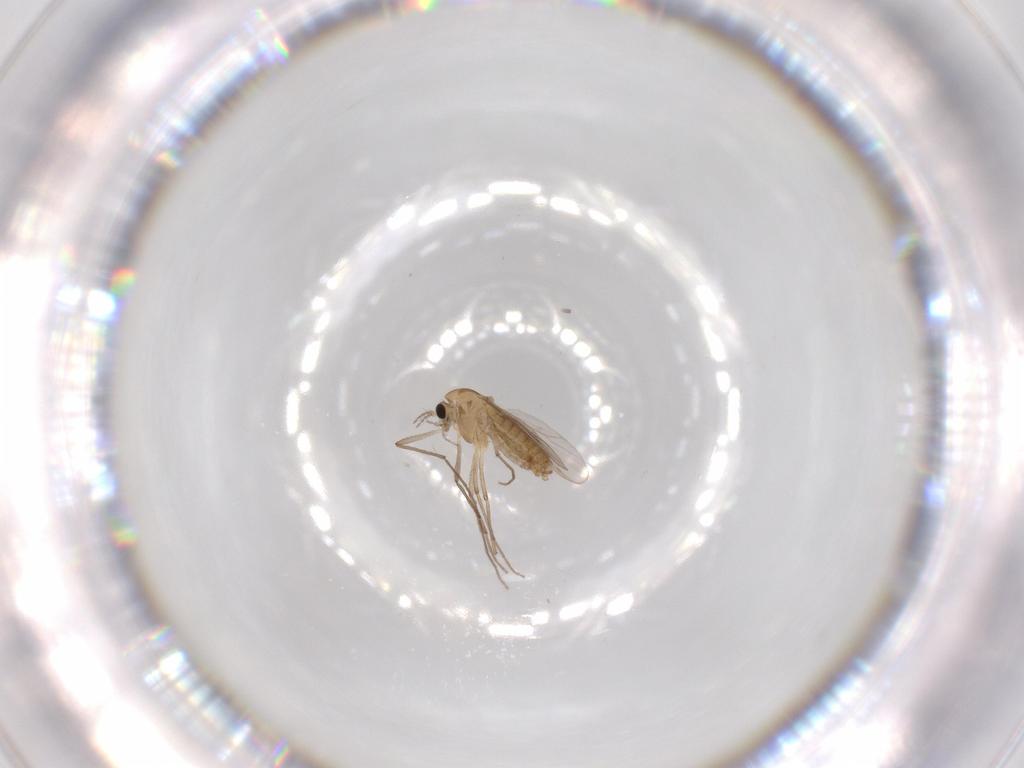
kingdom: Animalia
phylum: Arthropoda
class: Insecta
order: Diptera
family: Chironomidae
